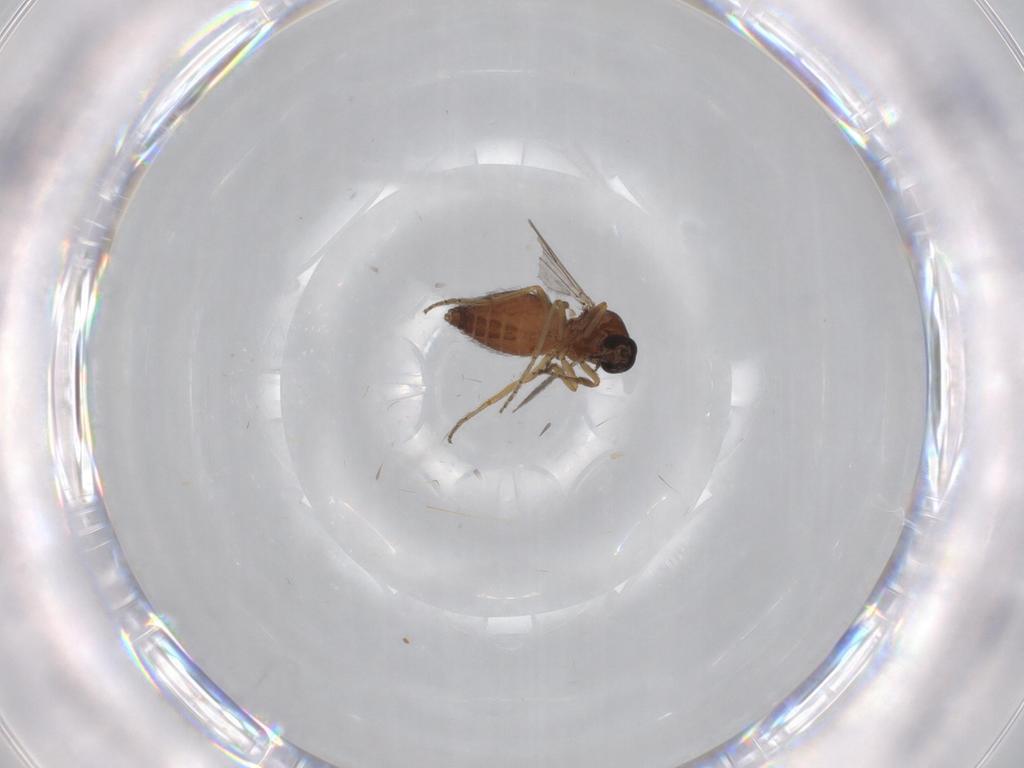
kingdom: Animalia
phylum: Arthropoda
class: Insecta
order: Diptera
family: Ceratopogonidae
